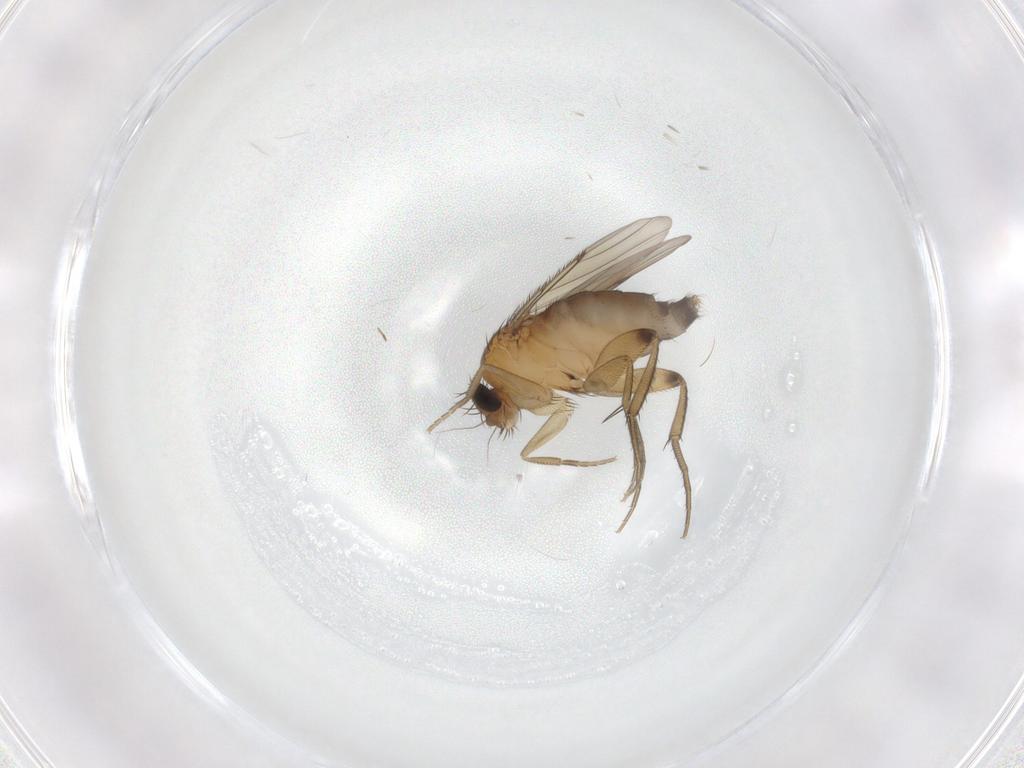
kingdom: Animalia
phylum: Arthropoda
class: Insecta
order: Diptera
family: Phoridae
